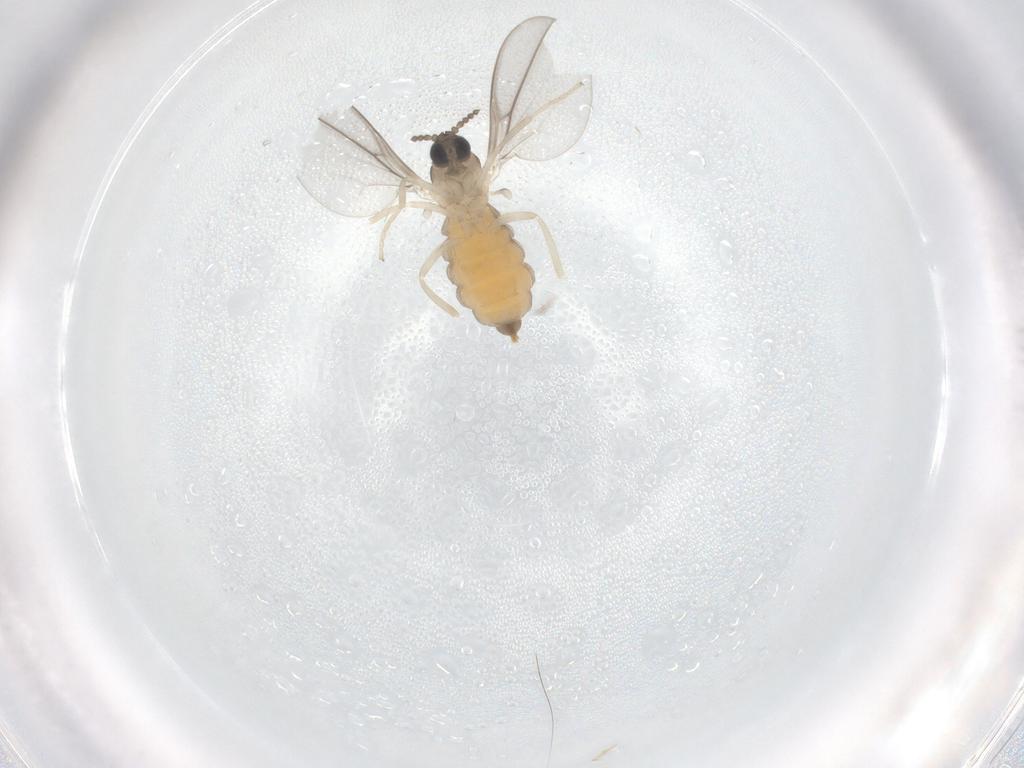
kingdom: Animalia
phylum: Arthropoda
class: Insecta
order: Diptera
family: Cecidomyiidae
